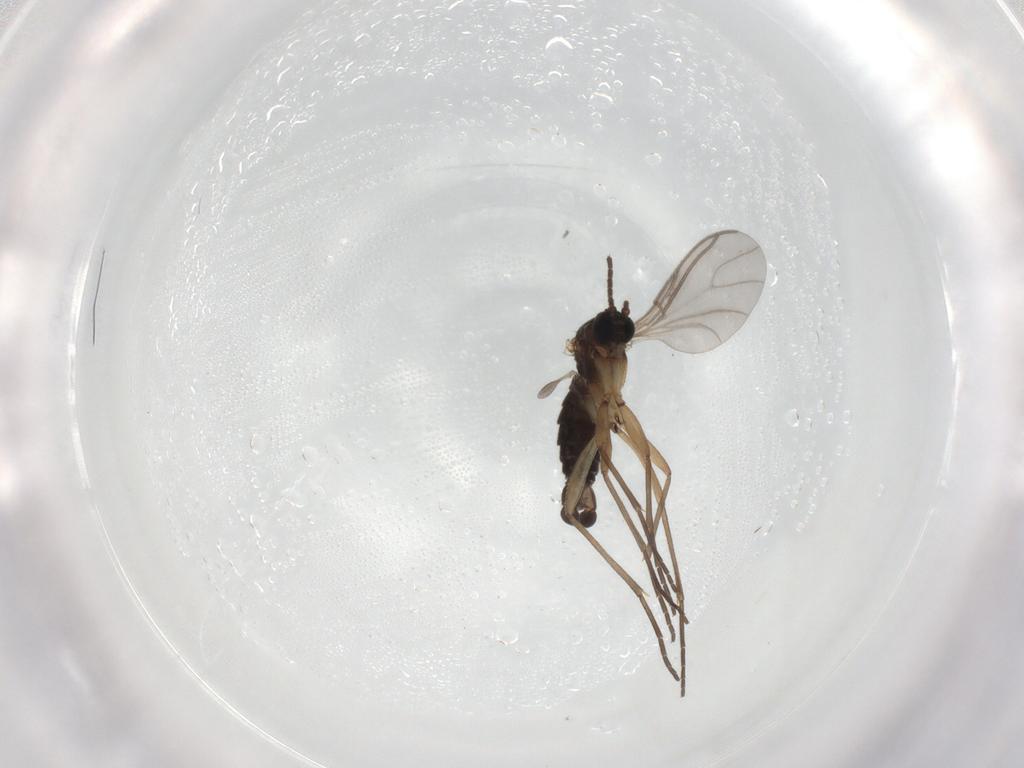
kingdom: Animalia
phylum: Arthropoda
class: Insecta
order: Diptera
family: Sciaridae
